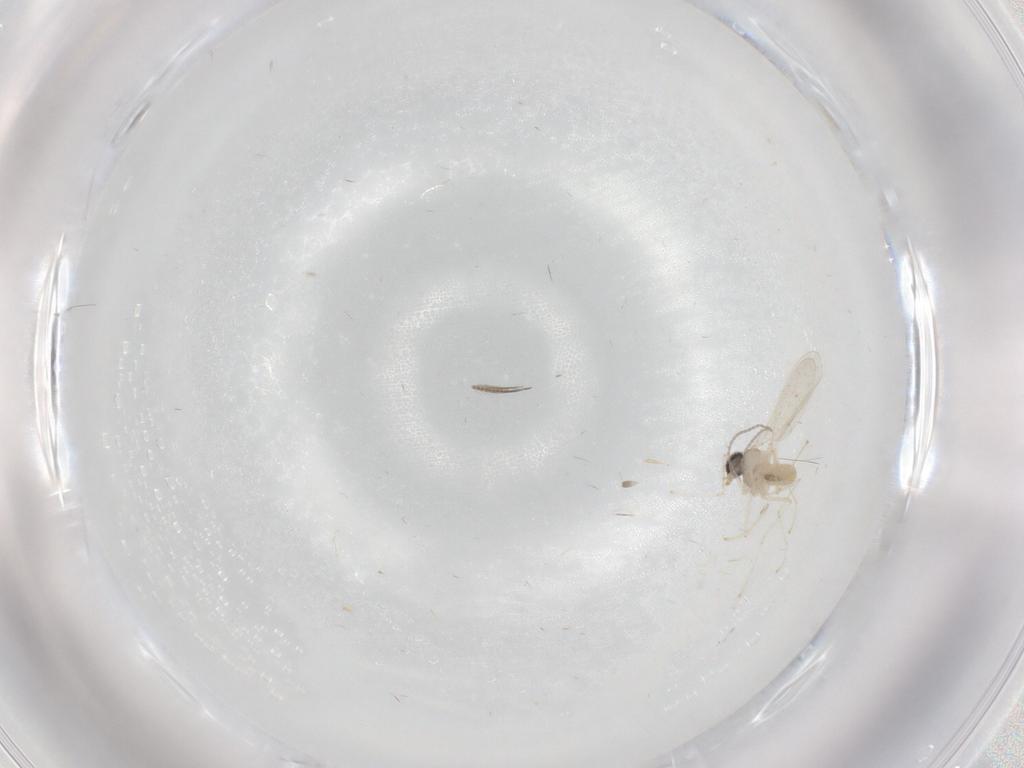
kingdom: Animalia
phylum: Arthropoda
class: Insecta
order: Diptera
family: Cecidomyiidae
